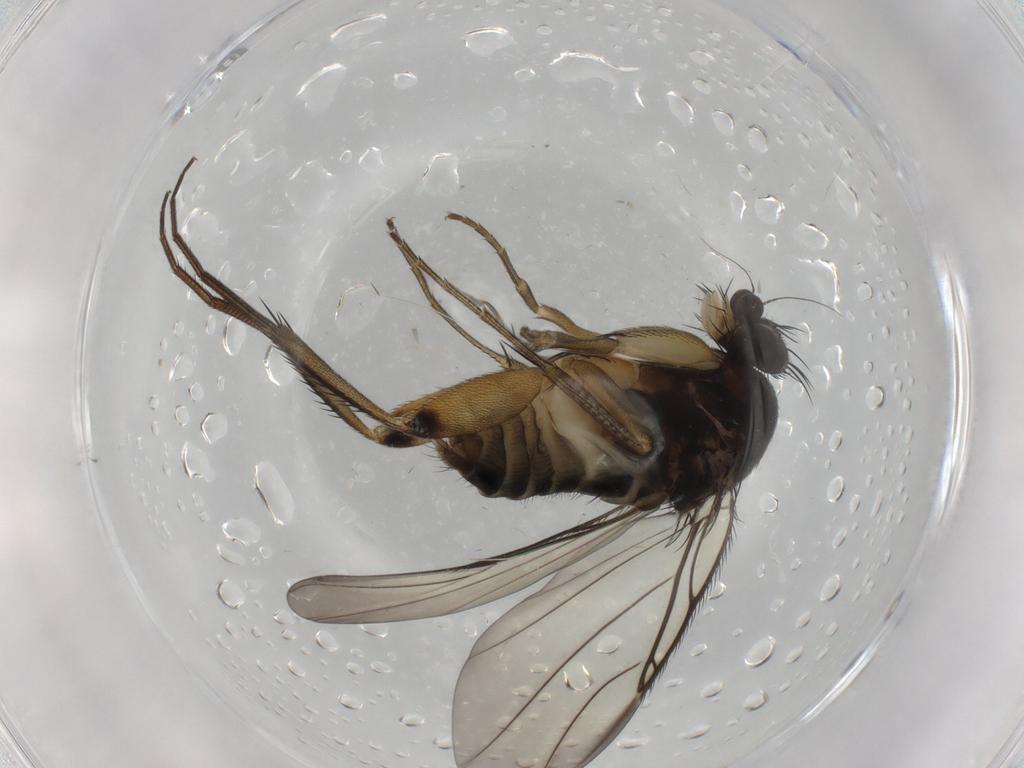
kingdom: Animalia
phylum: Arthropoda
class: Insecta
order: Diptera
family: Phoridae
